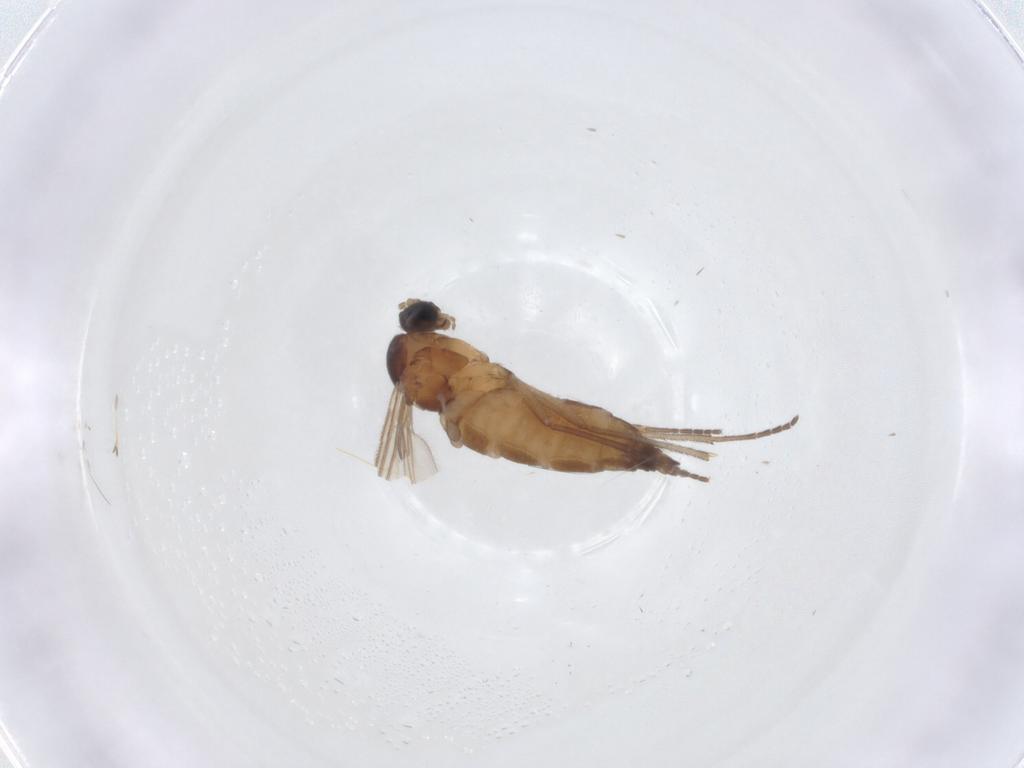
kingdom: Animalia
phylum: Arthropoda
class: Insecta
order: Diptera
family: Sciaridae
